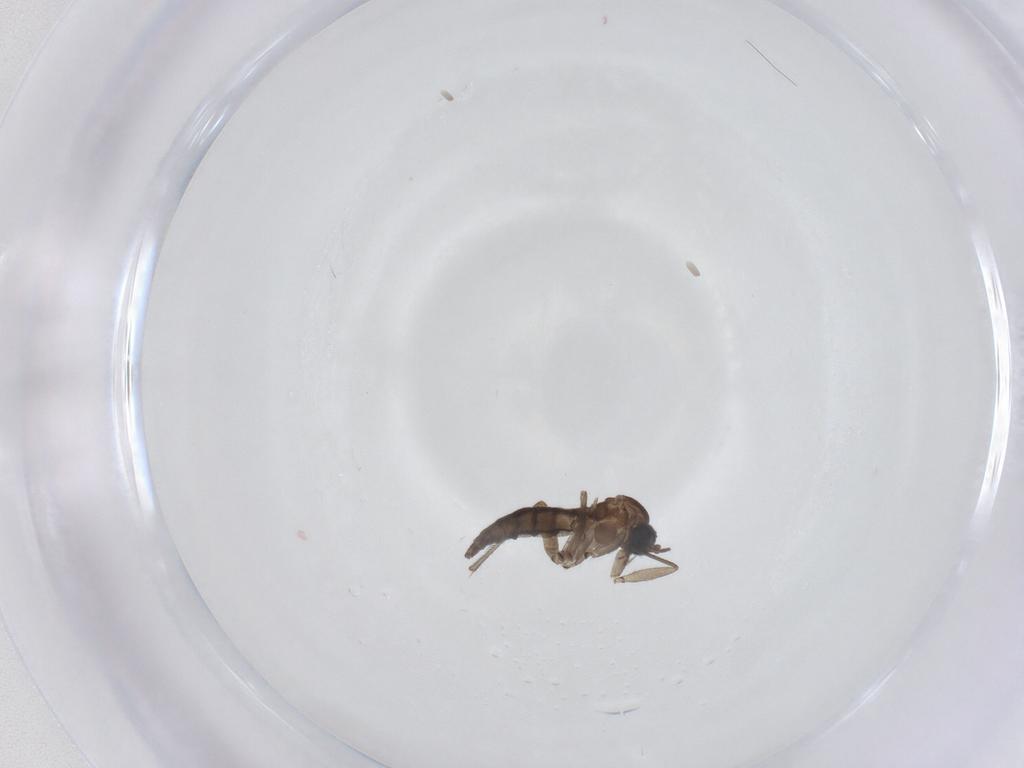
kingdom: Animalia
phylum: Arthropoda
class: Insecta
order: Diptera
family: Sciaridae
